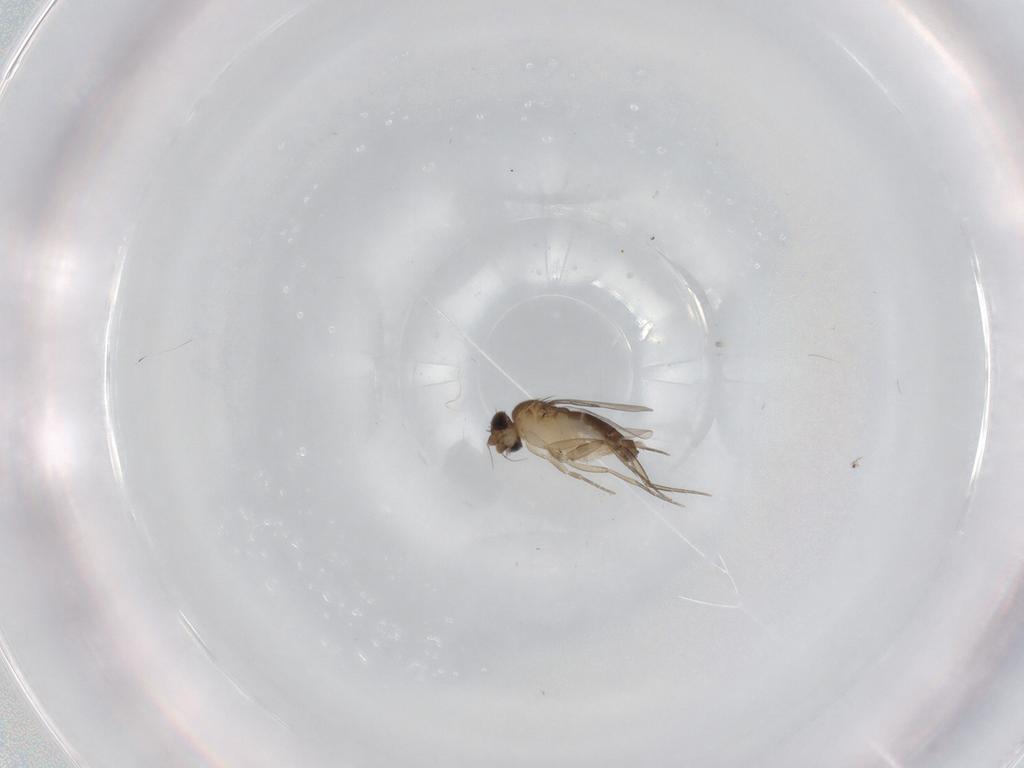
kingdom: Animalia
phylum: Arthropoda
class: Insecta
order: Diptera
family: Phoridae
